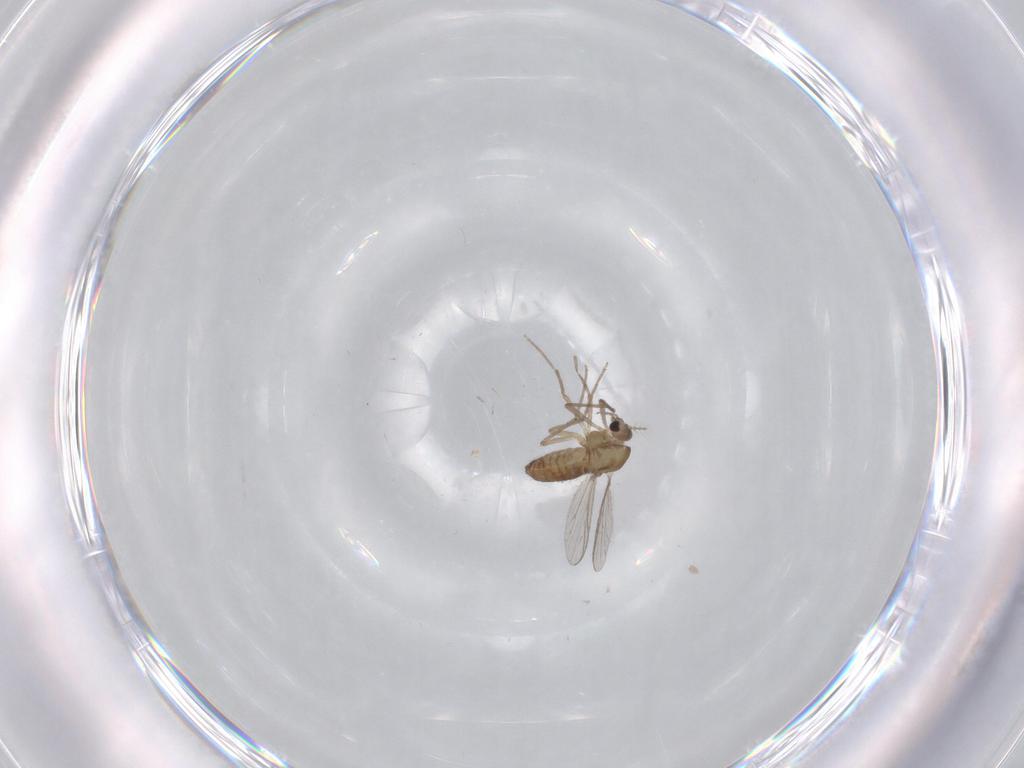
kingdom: Animalia
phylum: Arthropoda
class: Insecta
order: Diptera
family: Chironomidae
